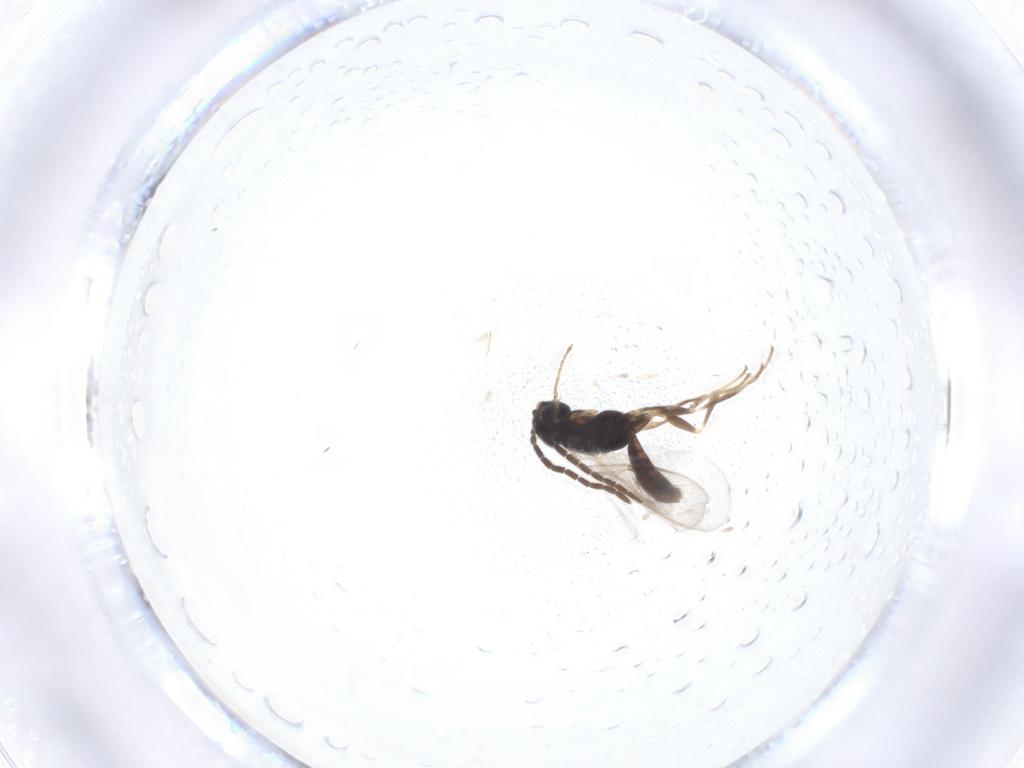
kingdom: Animalia
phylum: Arthropoda
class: Insecta
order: Hymenoptera
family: Dryinidae
